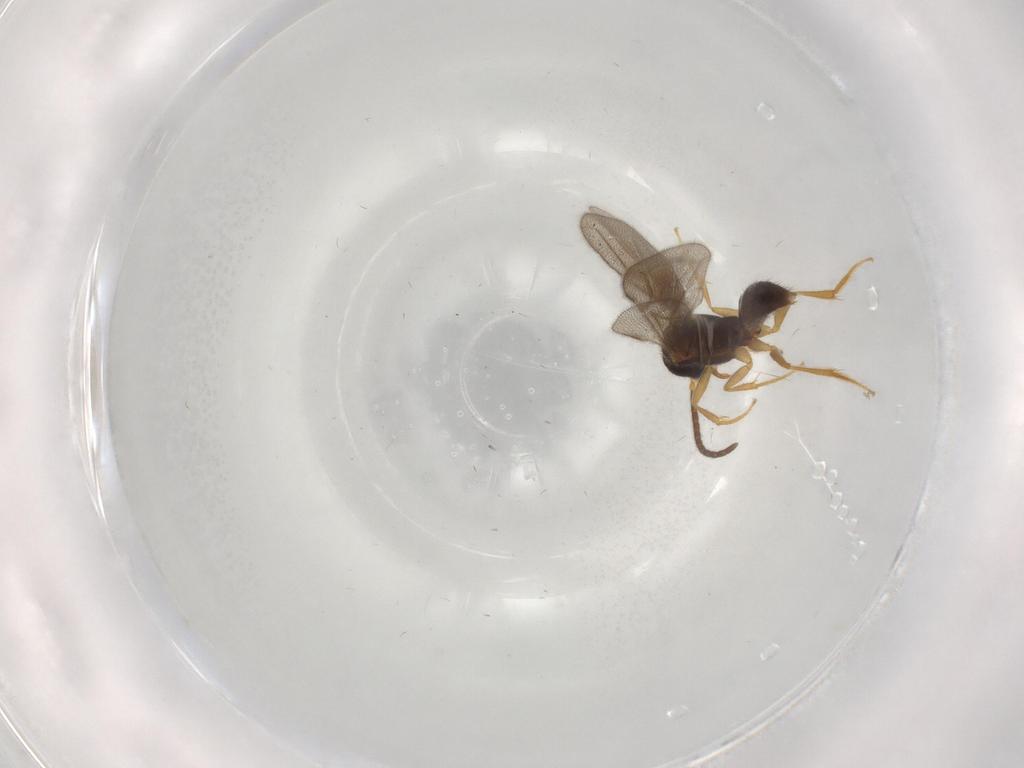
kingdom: Animalia
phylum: Arthropoda
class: Insecta
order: Hymenoptera
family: Bethylidae
